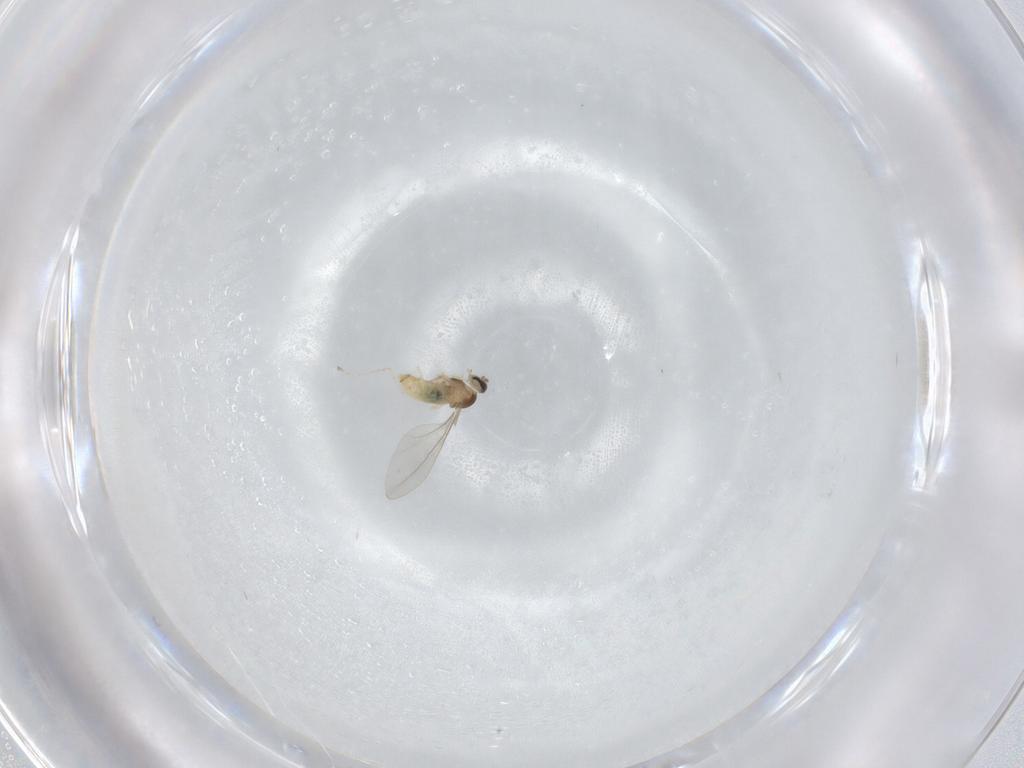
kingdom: Animalia
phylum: Arthropoda
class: Insecta
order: Diptera
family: Cecidomyiidae
